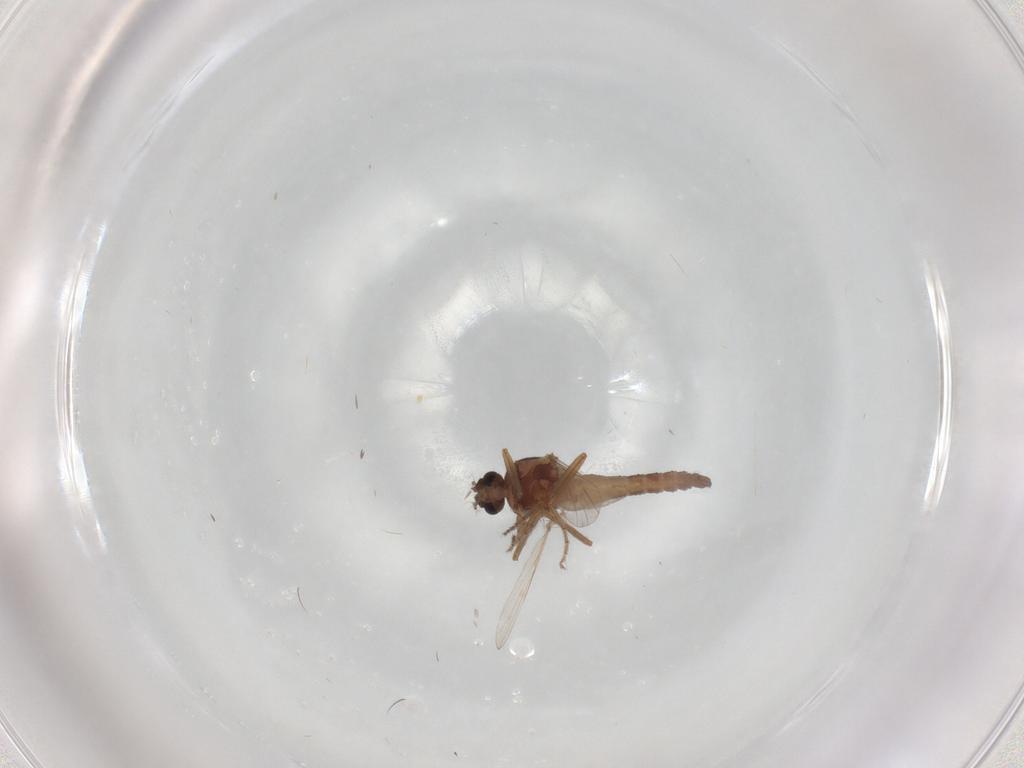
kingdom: Animalia
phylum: Arthropoda
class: Insecta
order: Diptera
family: Ceratopogonidae
